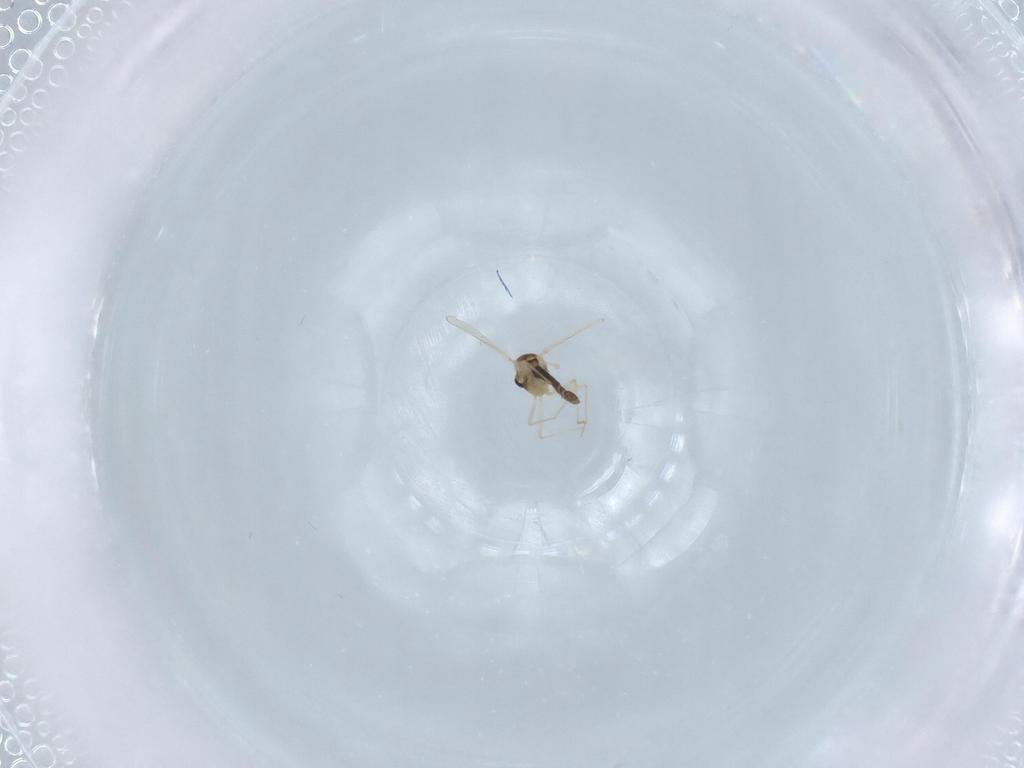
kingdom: Animalia
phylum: Arthropoda
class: Insecta
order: Diptera
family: Chironomidae
